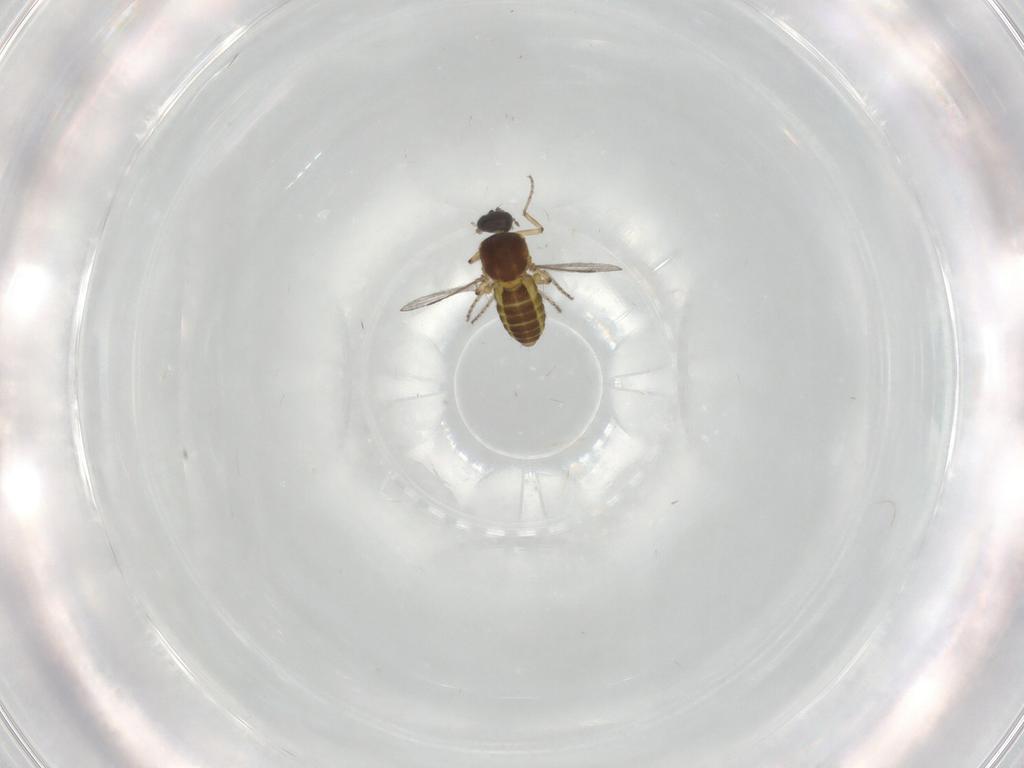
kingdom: Animalia
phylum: Arthropoda
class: Insecta
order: Diptera
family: Ceratopogonidae
